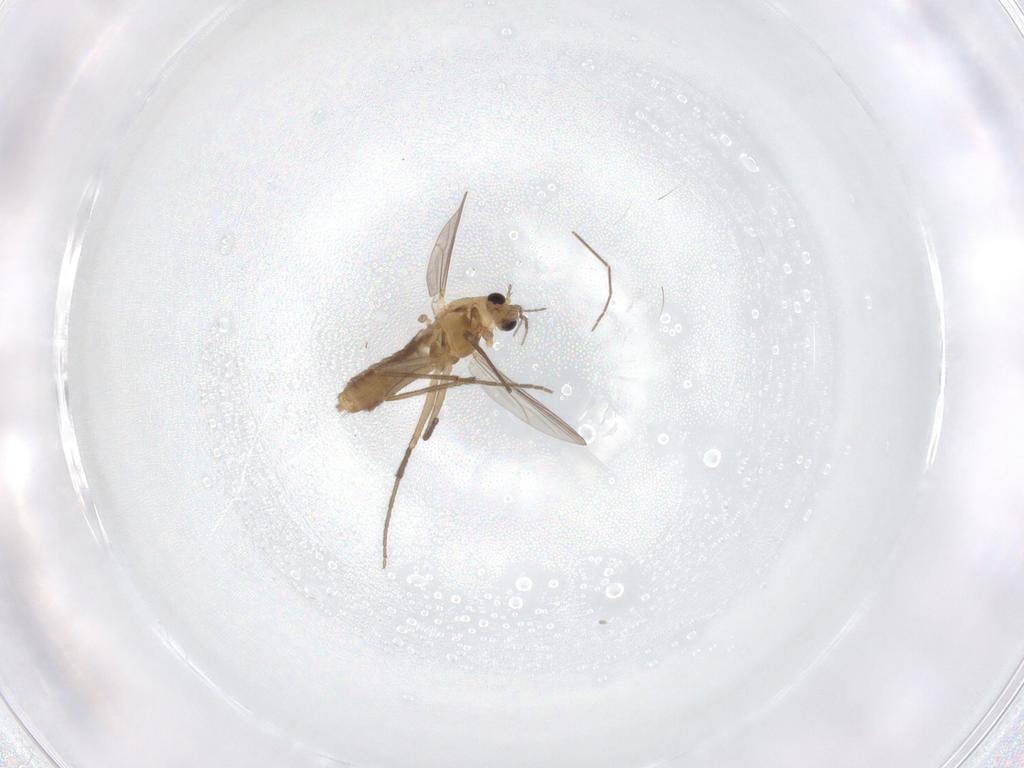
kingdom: Animalia
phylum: Arthropoda
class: Insecta
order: Diptera
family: Chironomidae
